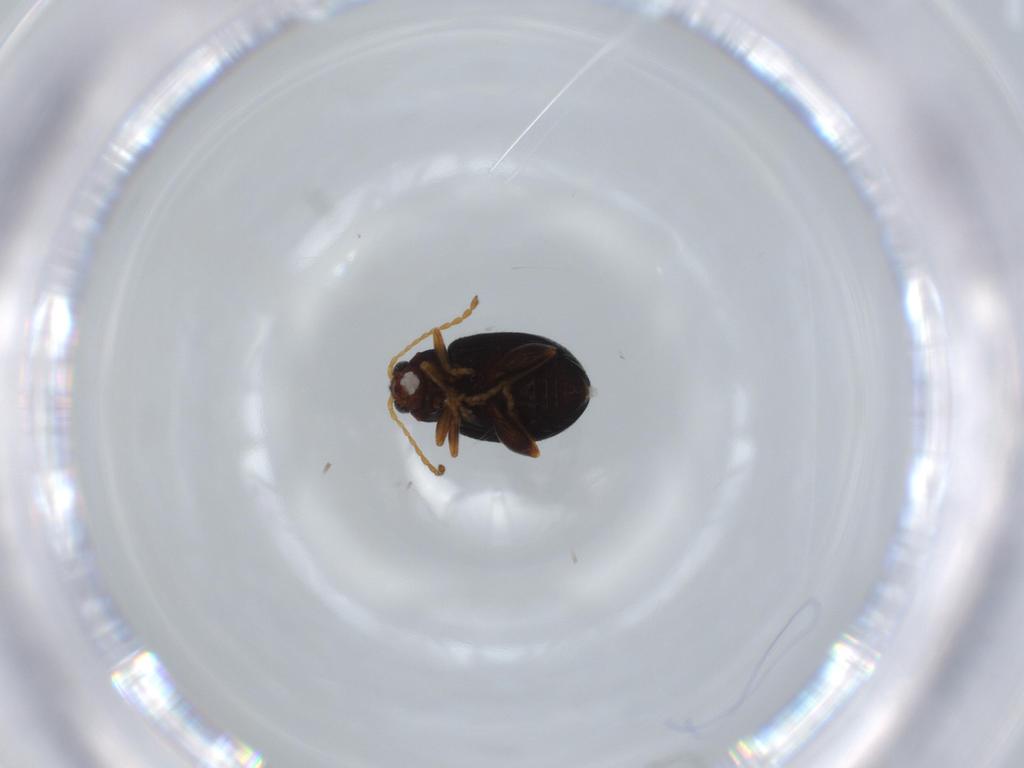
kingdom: Animalia
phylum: Arthropoda
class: Insecta
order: Coleoptera
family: Chrysomelidae
